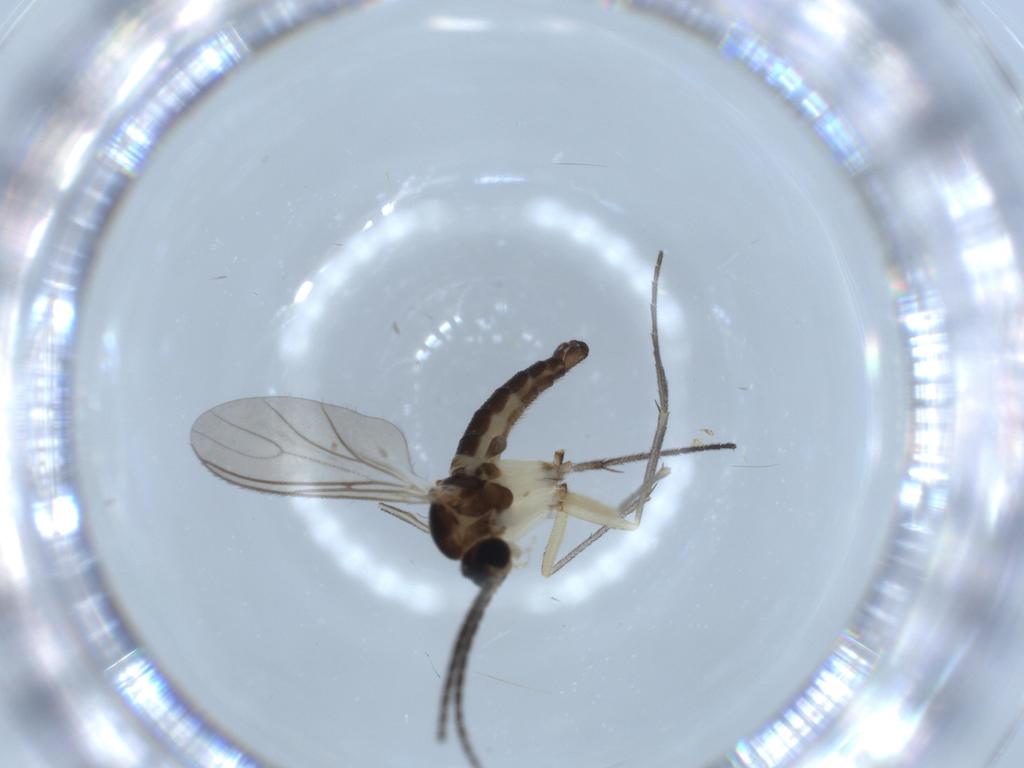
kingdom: Animalia
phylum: Arthropoda
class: Insecta
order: Diptera
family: Sciaridae
